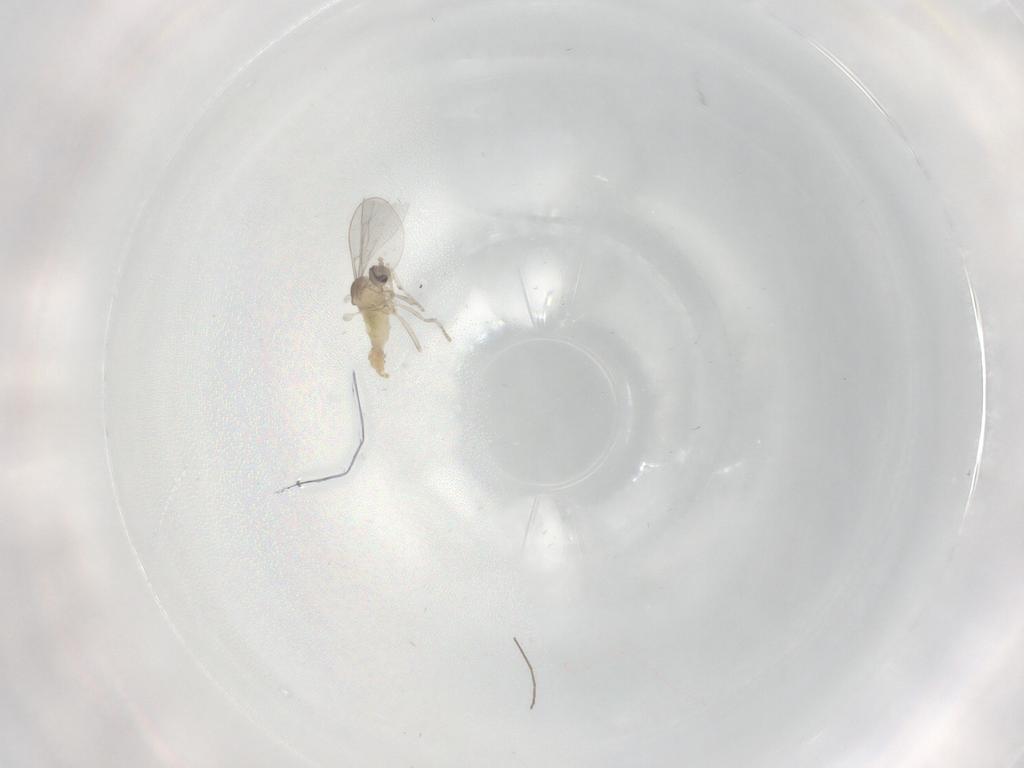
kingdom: Animalia
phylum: Arthropoda
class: Insecta
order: Diptera
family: Cecidomyiidae
